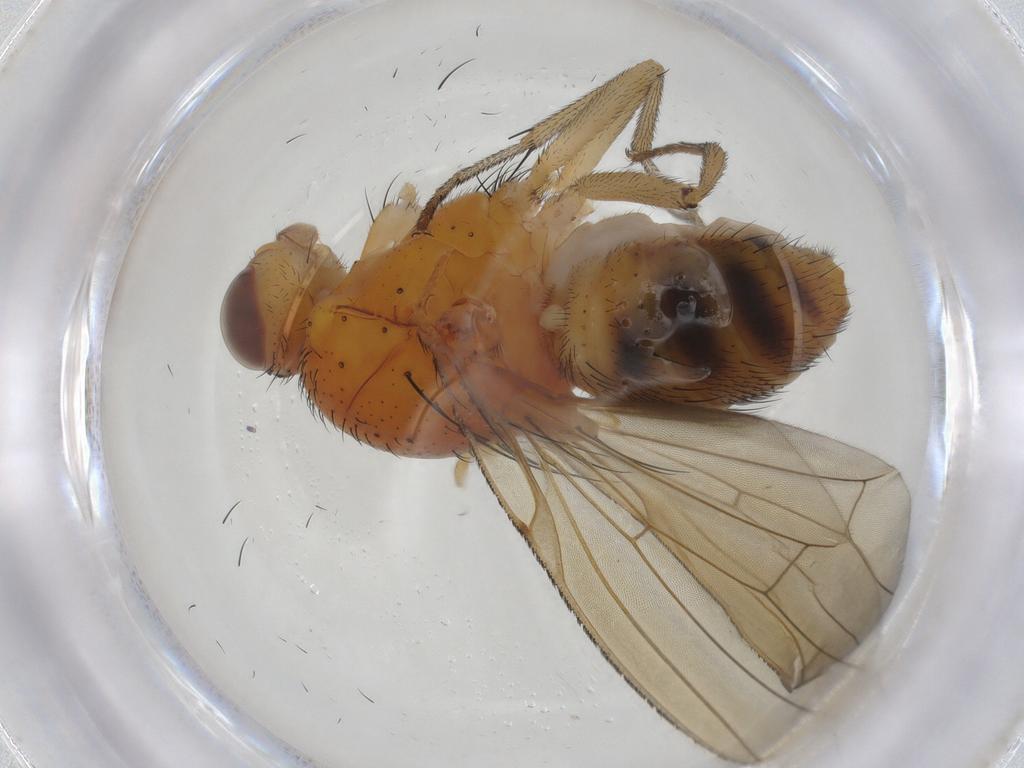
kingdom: Animalia
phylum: Arthropoda
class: Insecta
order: Diptera
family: Lauxaniidae
